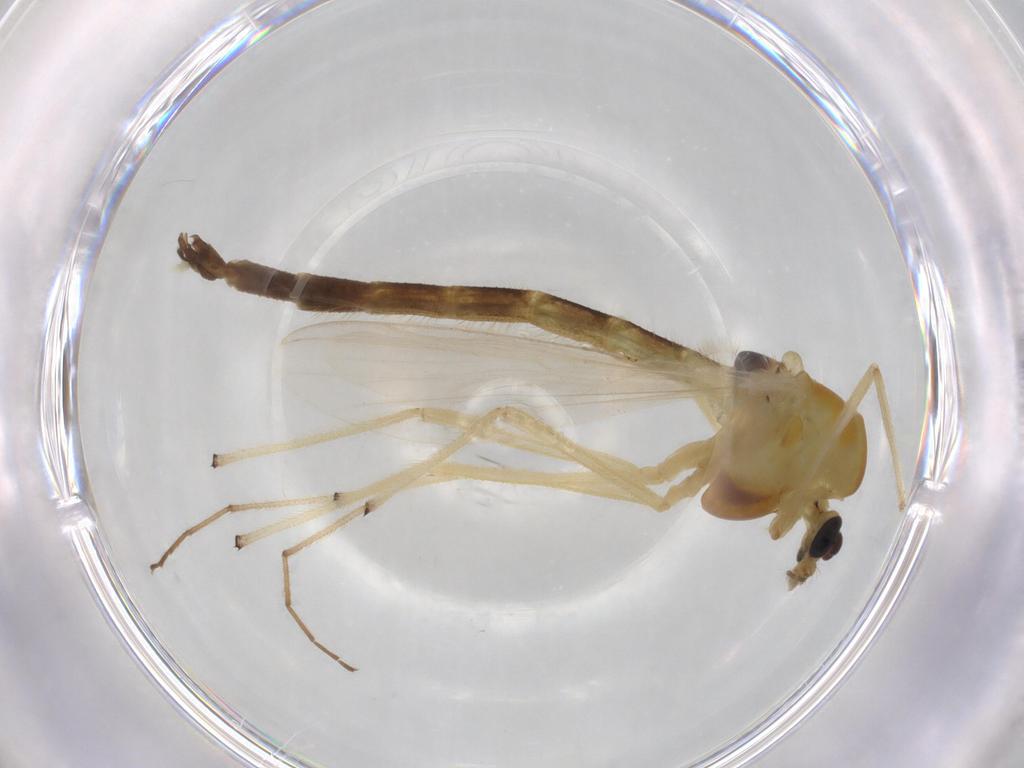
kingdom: Animalia
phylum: Arthropoda
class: Insecta
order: Diptera
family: Chironomidae
